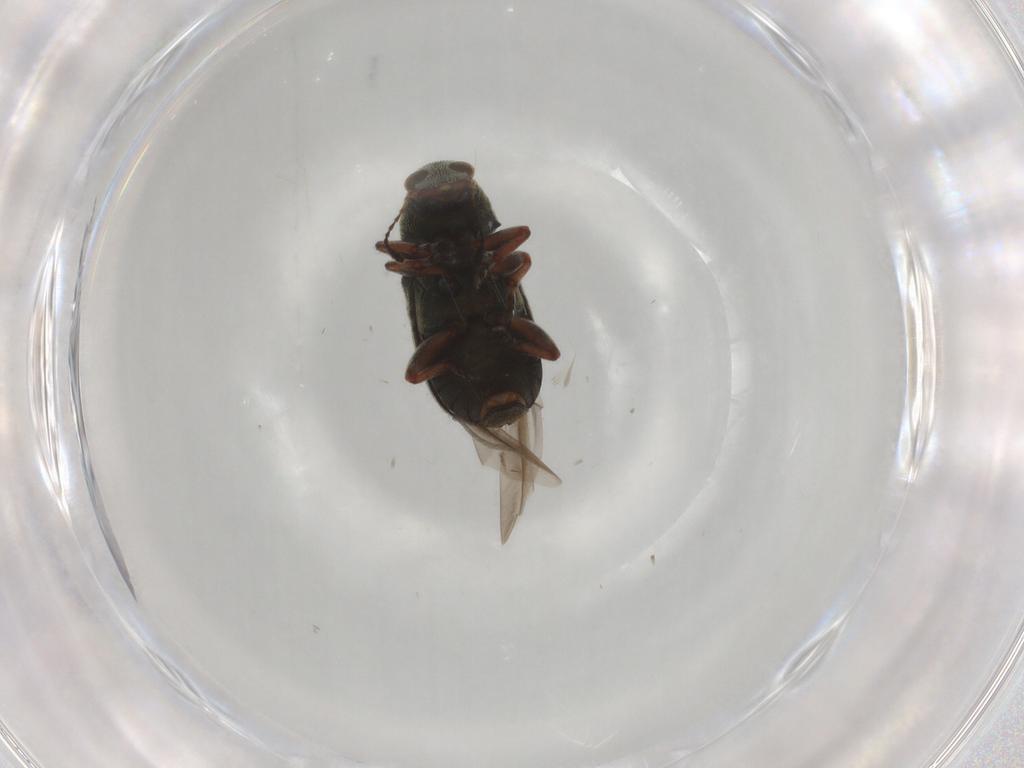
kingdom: Animalia
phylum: Arthropoda
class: Insecta
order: Coleoptera
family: Anthribidae
